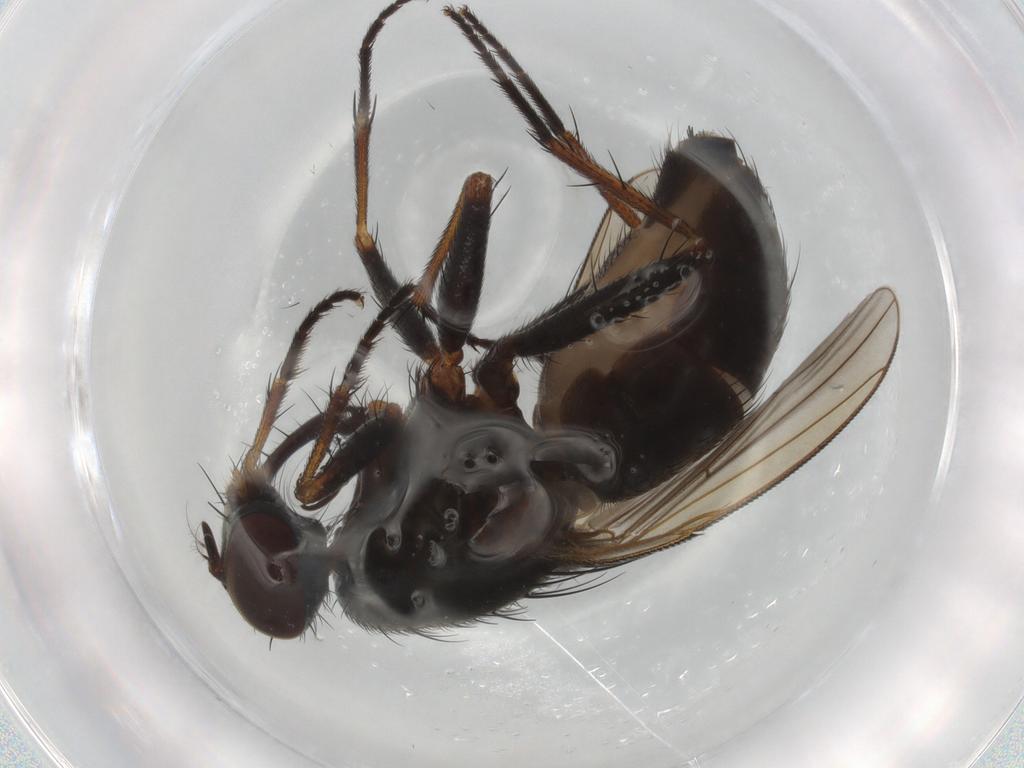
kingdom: Animalia
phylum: Arthropoda
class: Insecta
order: Diptera
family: Muscidae
